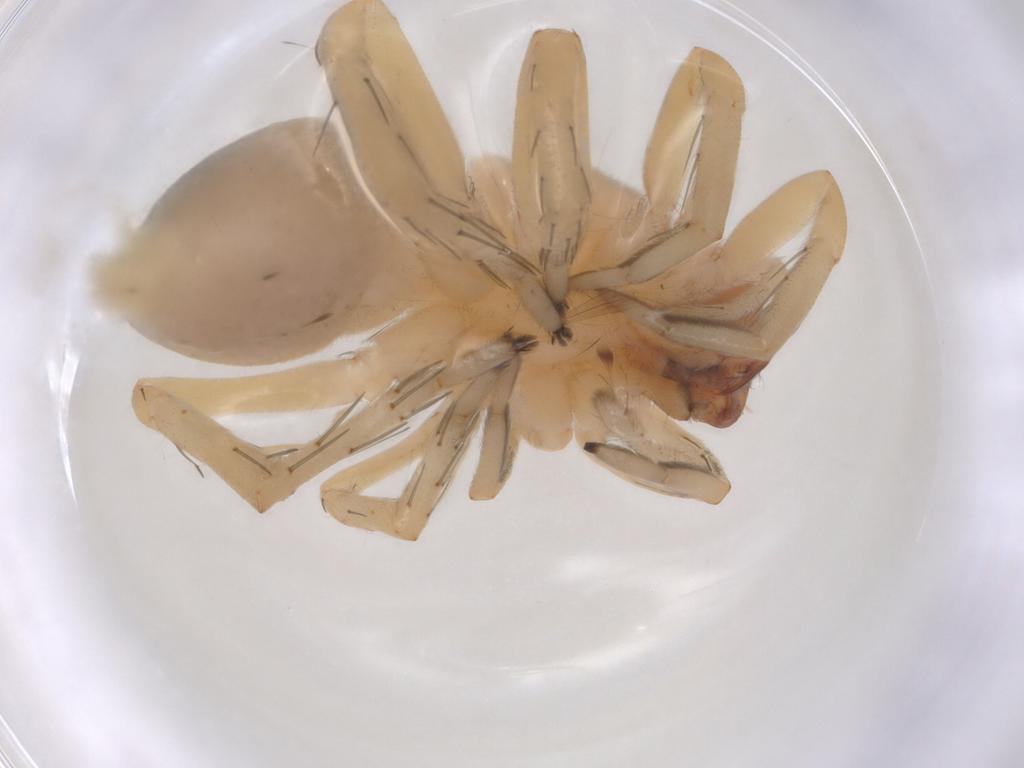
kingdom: Animalia
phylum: Arthropoda
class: Arachnida
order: Araneae
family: Clubionidae
